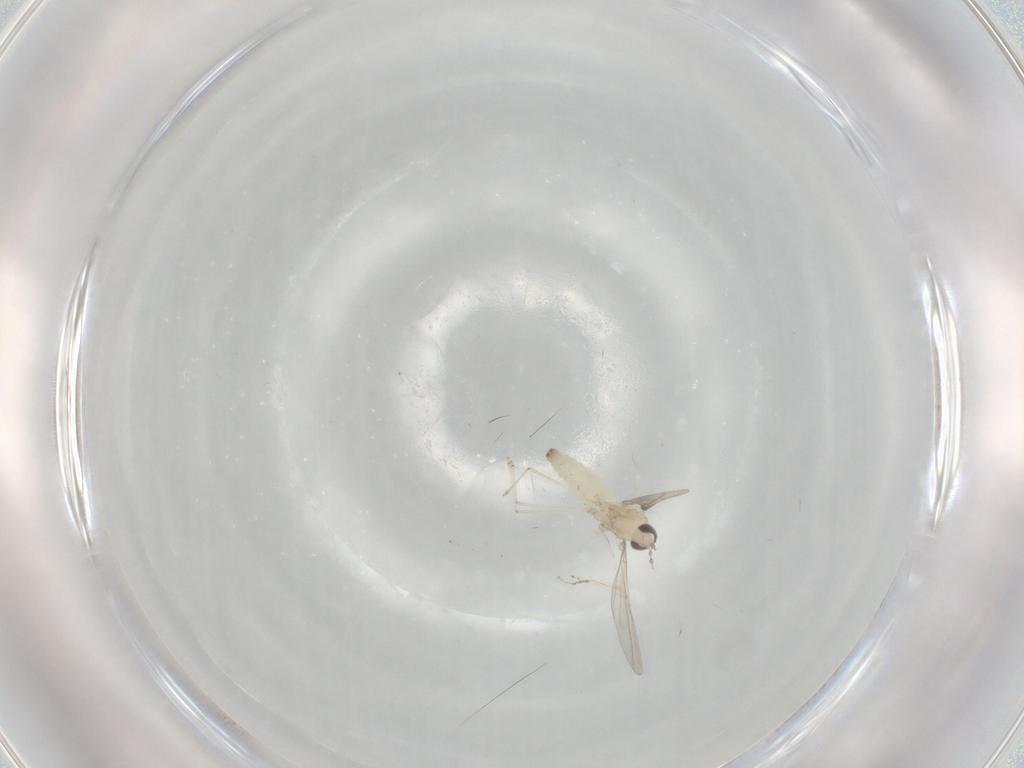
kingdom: Animalia
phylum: Arthropoda
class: Insecta
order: Diptera
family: Cecidomyiidae
